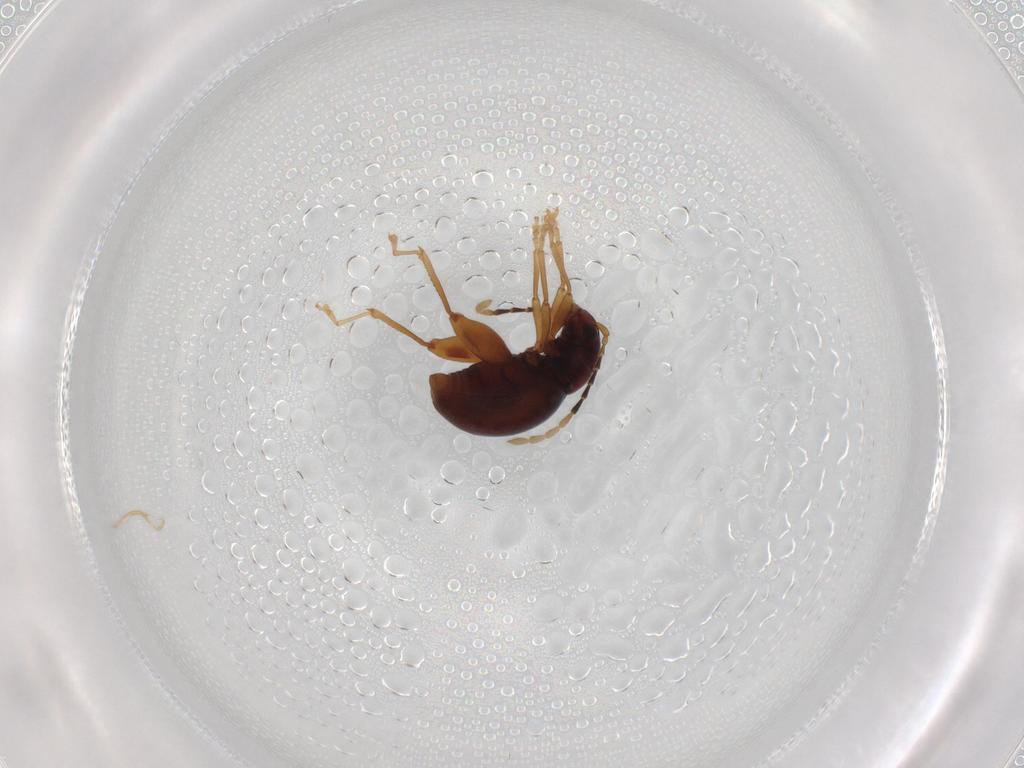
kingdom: Animalia
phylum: Arthropoda
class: Insecta
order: Coleoptera
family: Chrysomelidae
